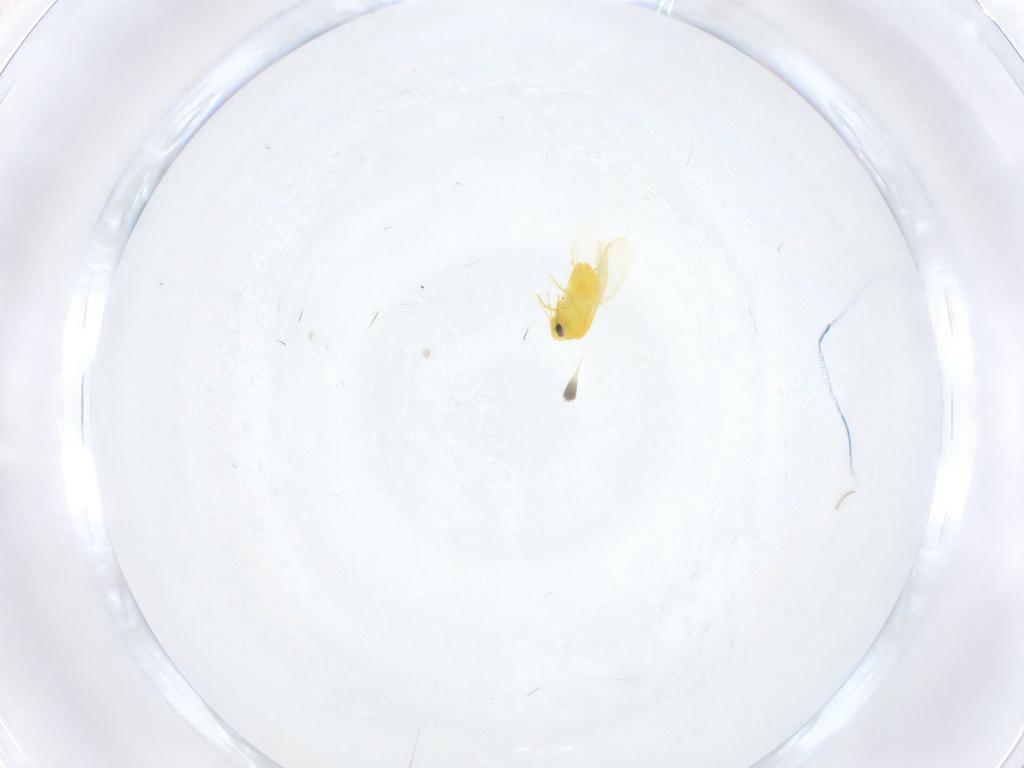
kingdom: Animalia
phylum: Arthropoda
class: Insecta
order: Hemiptera
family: Aleyrodidae
